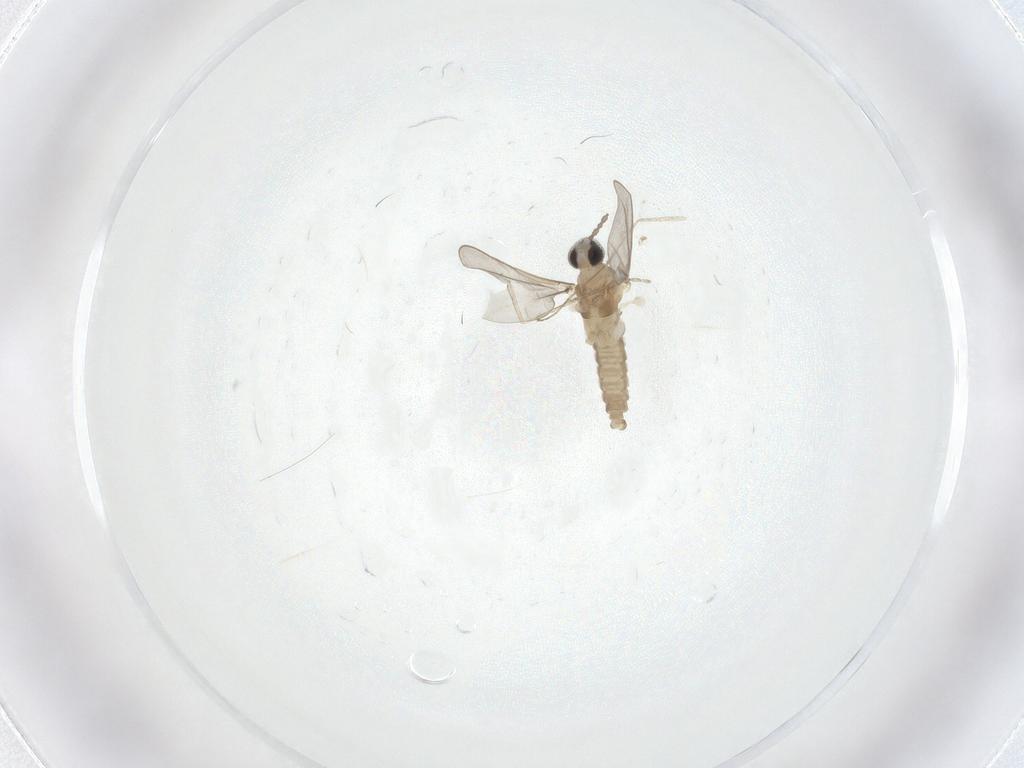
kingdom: Animalia
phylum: Arthropoda
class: Insecta
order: Diptera
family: Cecidomyiidae
